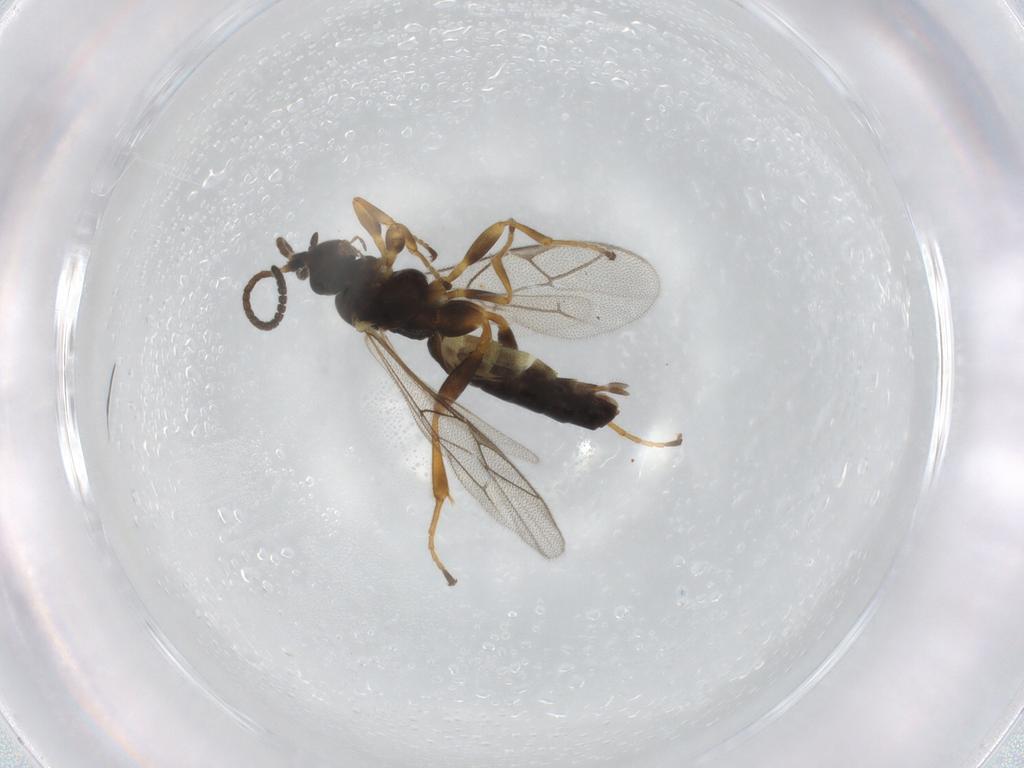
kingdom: Animalia
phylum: Arthropoda
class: Insecta
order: Hymenoptera
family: Ichneumonidae
